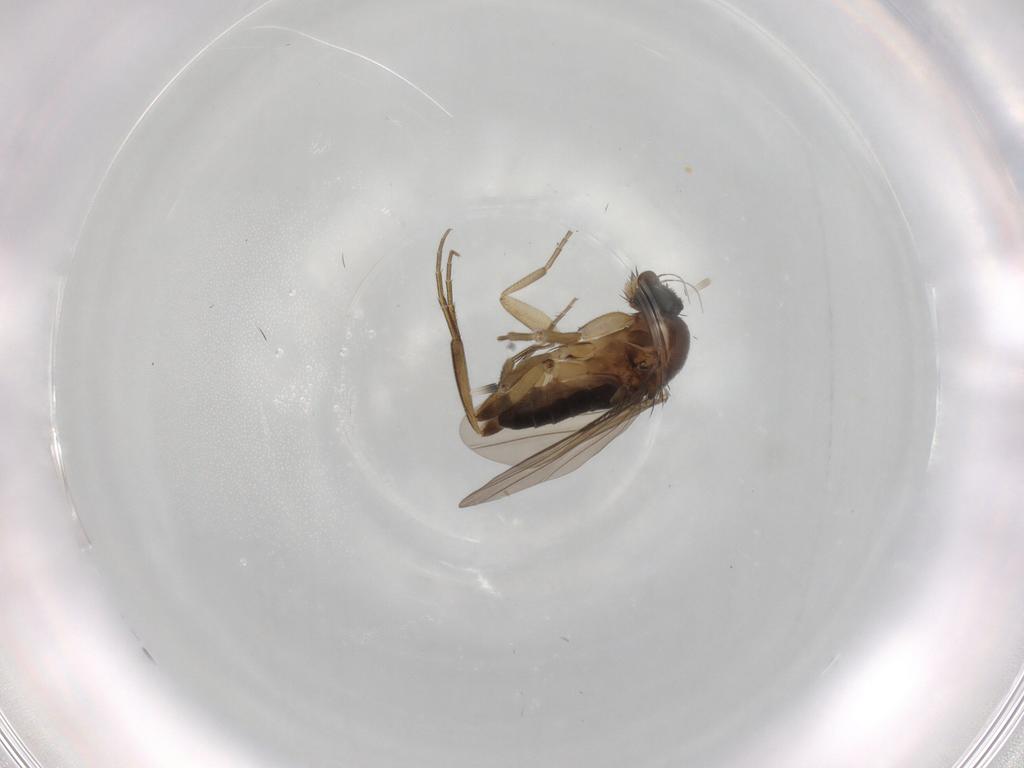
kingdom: Animalia
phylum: Arthropoda
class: Insecta
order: Diptera
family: Phoridae
